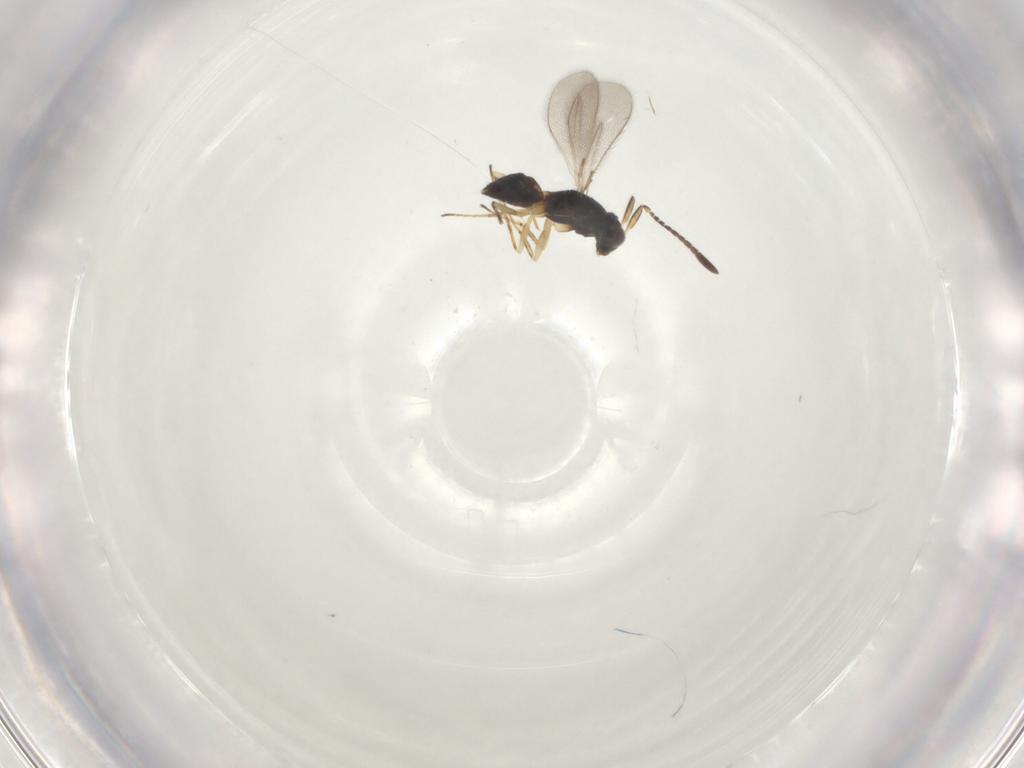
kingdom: Animalia
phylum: Arthropoda
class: Insecta
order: Hymenoptera
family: Mymaridae
